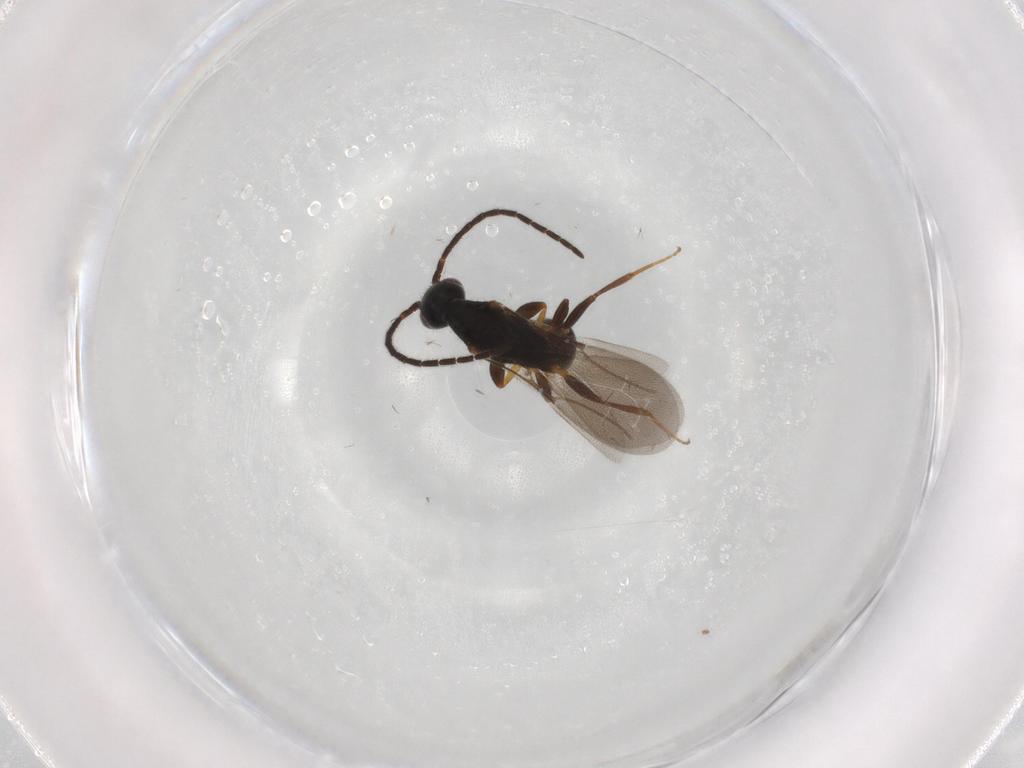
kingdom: Animalia
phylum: Arthropoda
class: Insecta
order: Hymenoptera
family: Bethylidae
